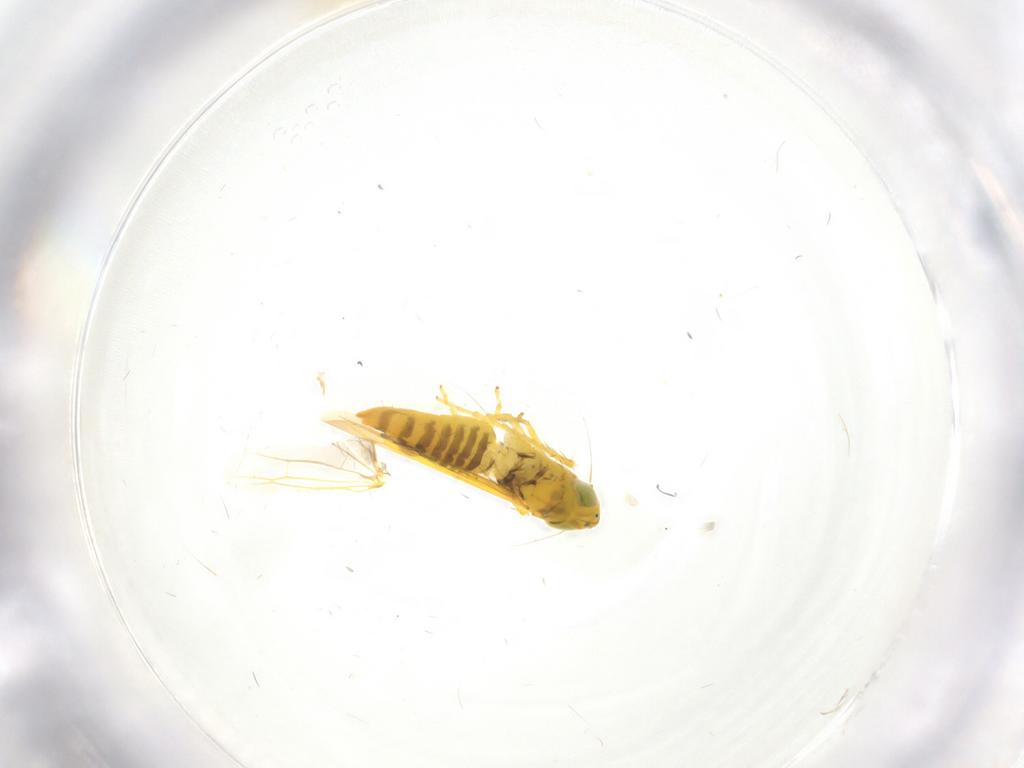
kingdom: Animalia
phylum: Arthropoda
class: Insecta
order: Hemiptera
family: Cicadellidae
